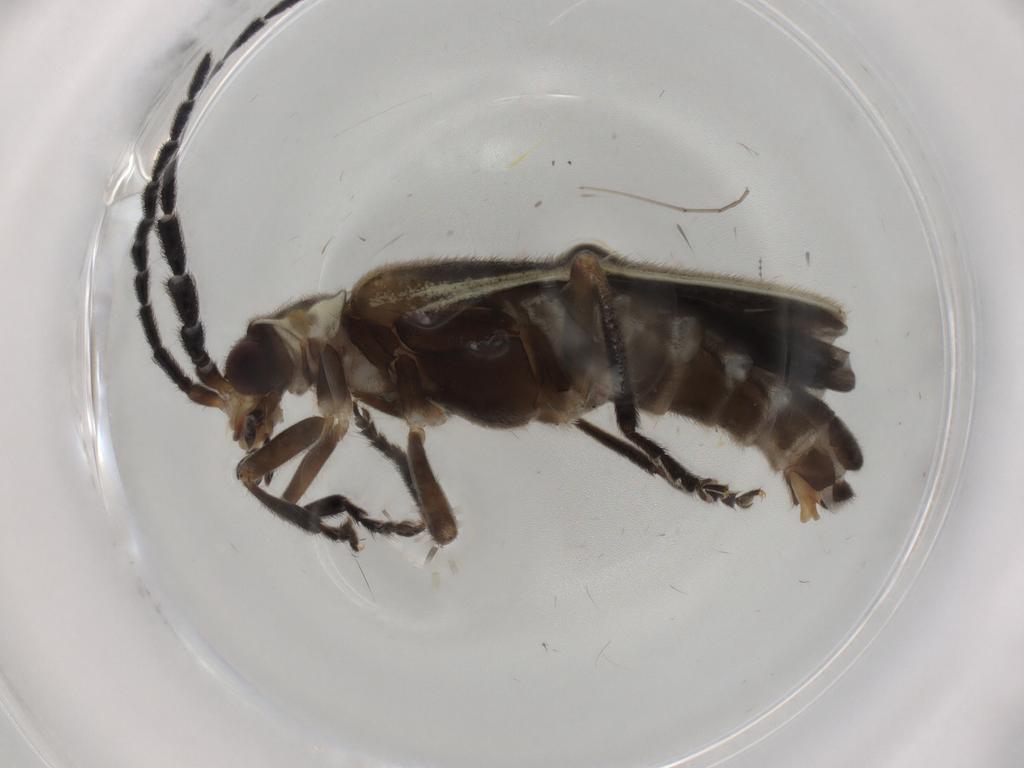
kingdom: Animalia
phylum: Arthropoda
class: Insecta
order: Coleoptera
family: Cantharidae
